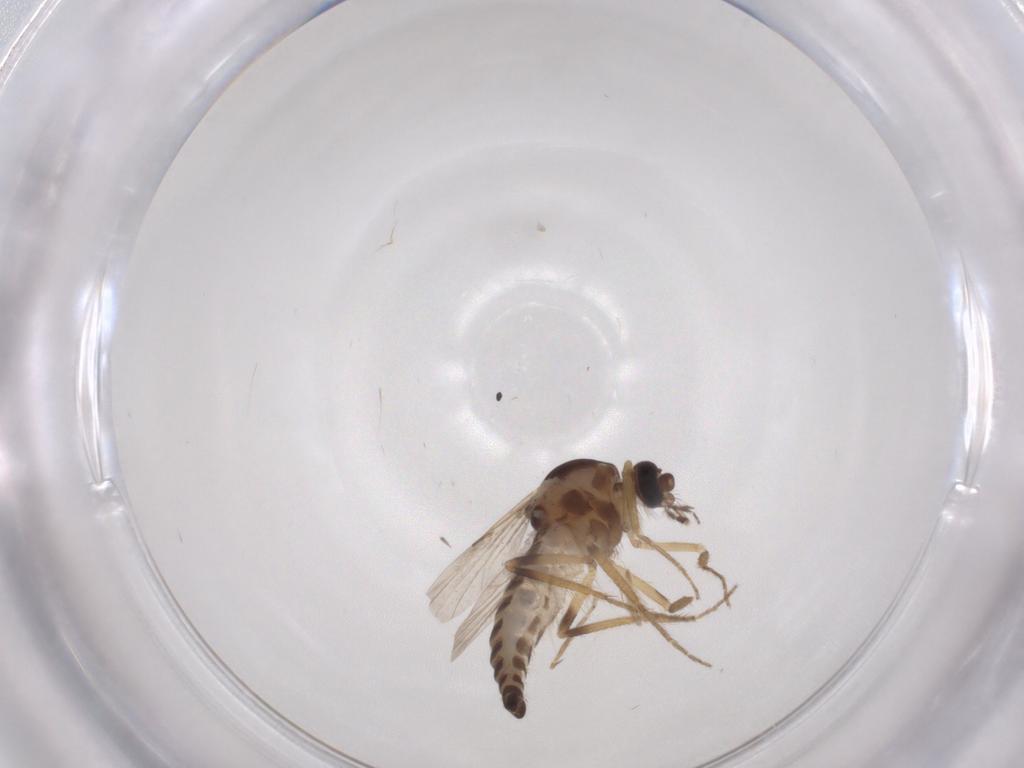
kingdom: Animalia
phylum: Arthropoda
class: Insecta
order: Diptera
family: Ceratopogonidae
